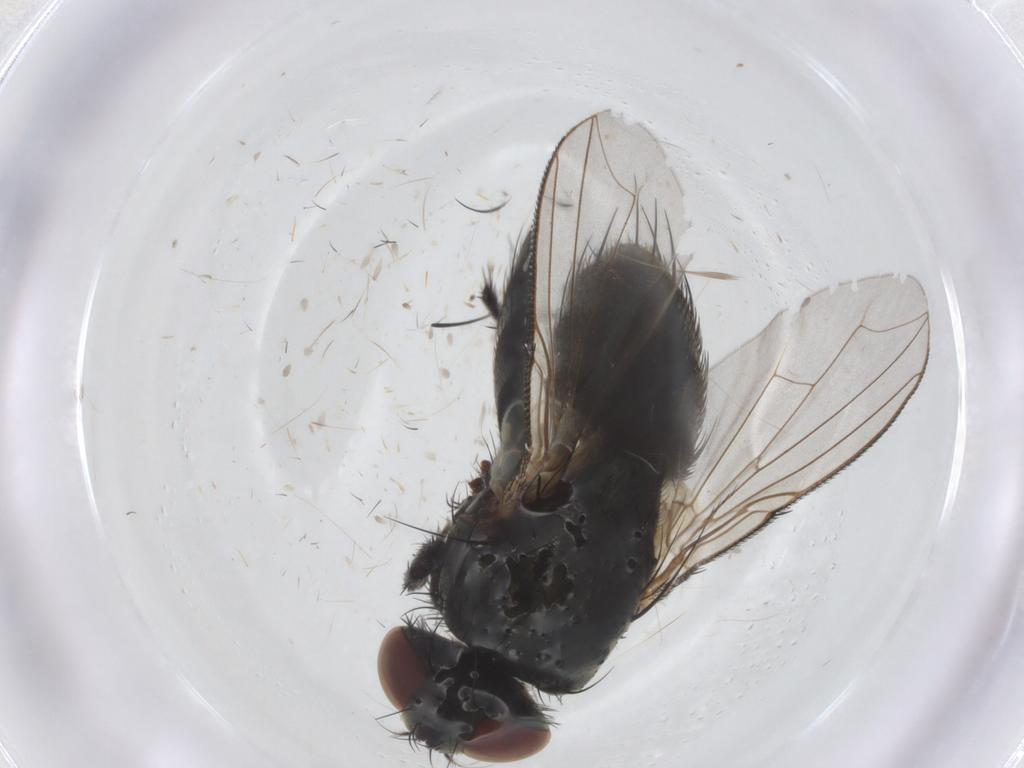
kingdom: Animalia
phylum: Arthropoda
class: Insecta
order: Diptera
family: Sarcophagidae
